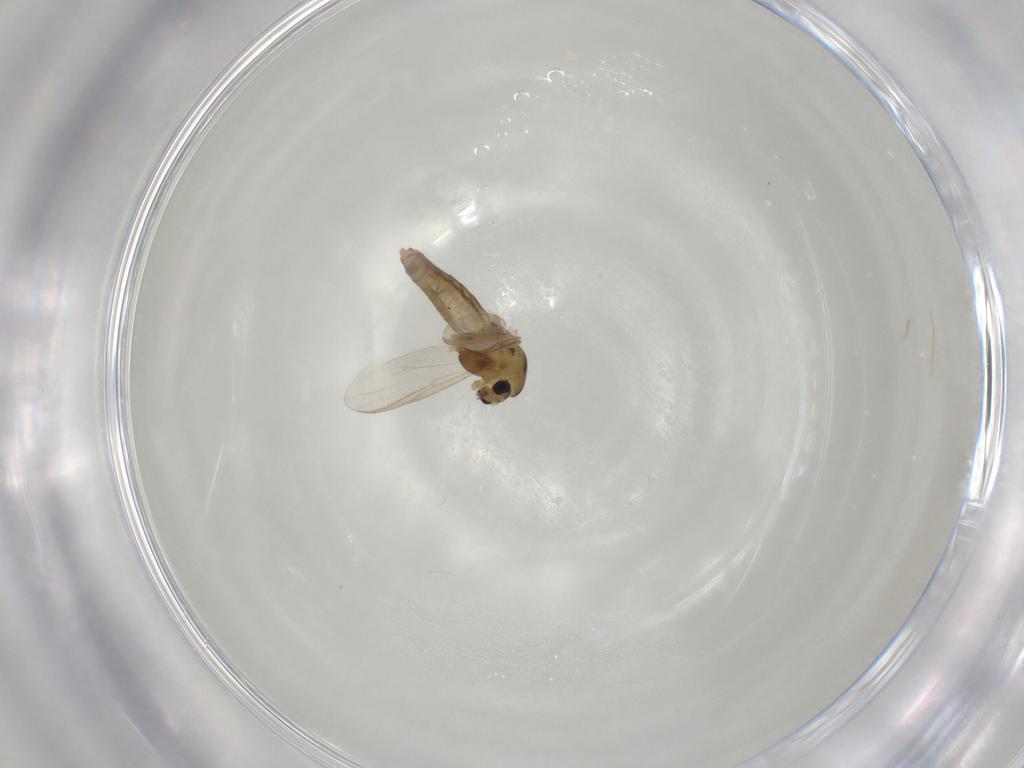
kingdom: Animalia
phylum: Arthropoda
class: Insecta
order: Diptera
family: Chironomidae
